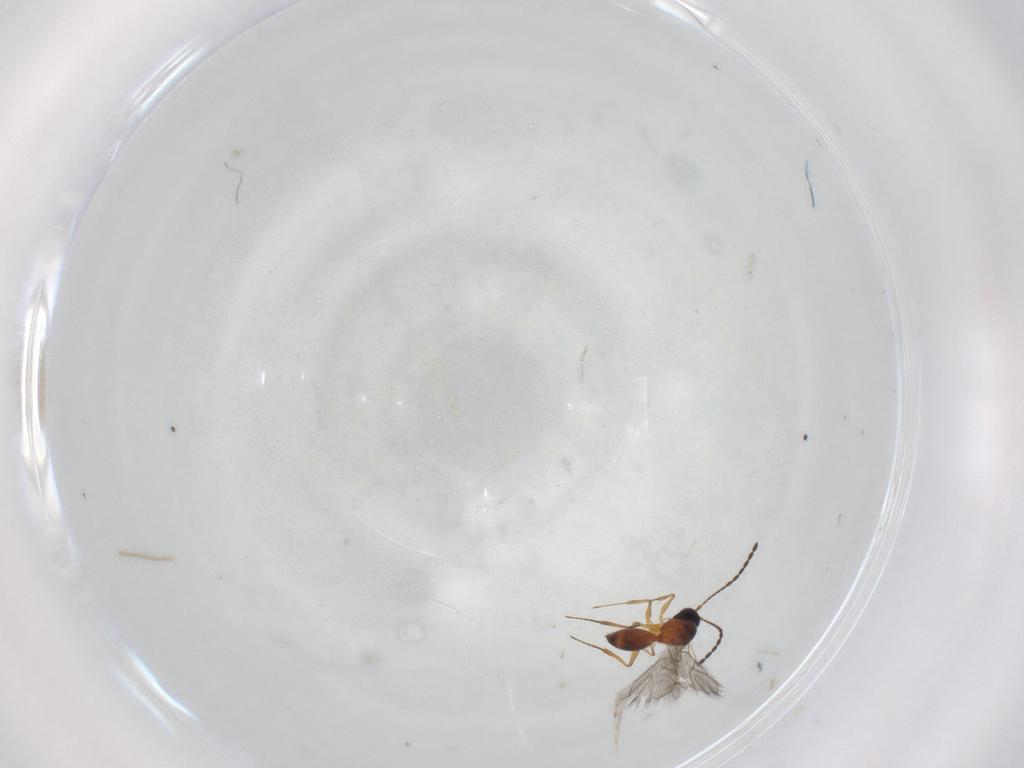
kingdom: Animalia
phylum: Arthropoda
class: Insecta
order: Hymenoptera
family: Figitidae
